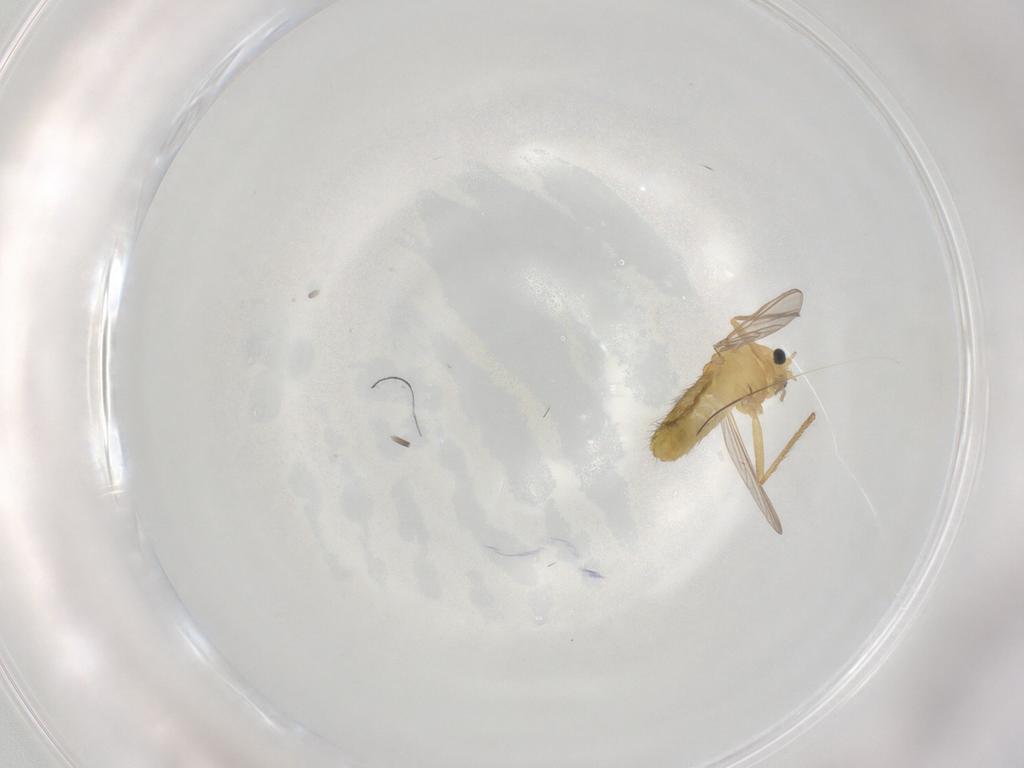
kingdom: Animalia
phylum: Arthropoda
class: Insecta
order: Diptera
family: Chironomidae
